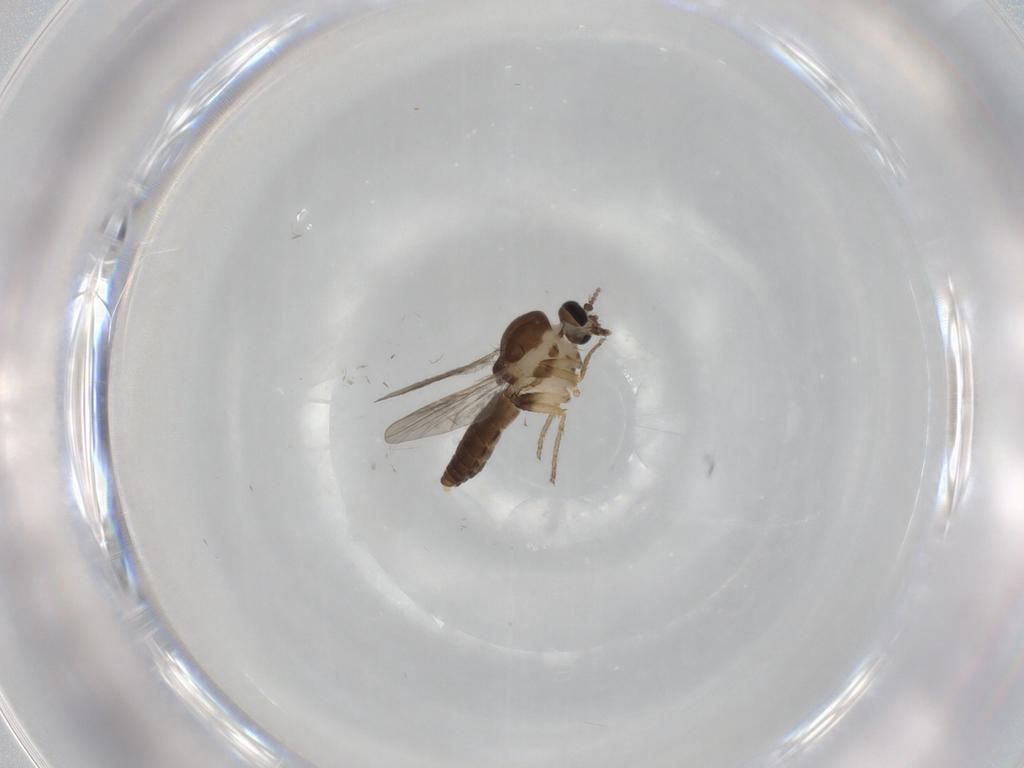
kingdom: Animalia
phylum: Arthropoda
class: Insecta
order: Diptera
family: Ceratopogonidae
